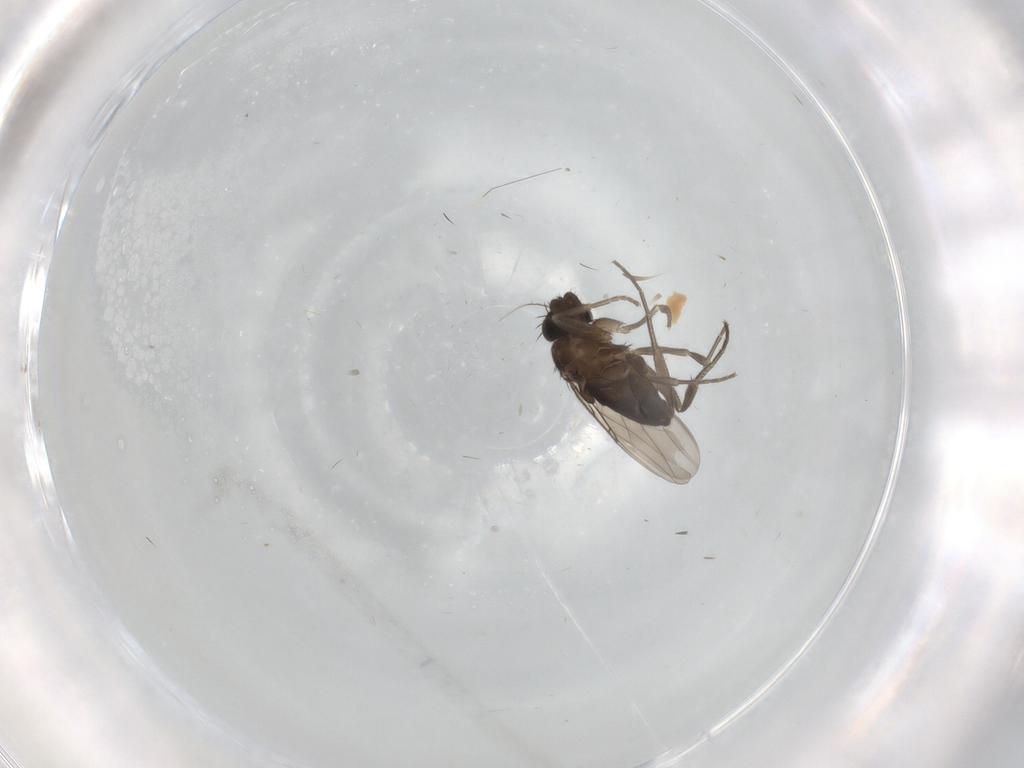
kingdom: Animalia
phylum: Arthropoda
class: Insecta
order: Diptera
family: Phoridae
